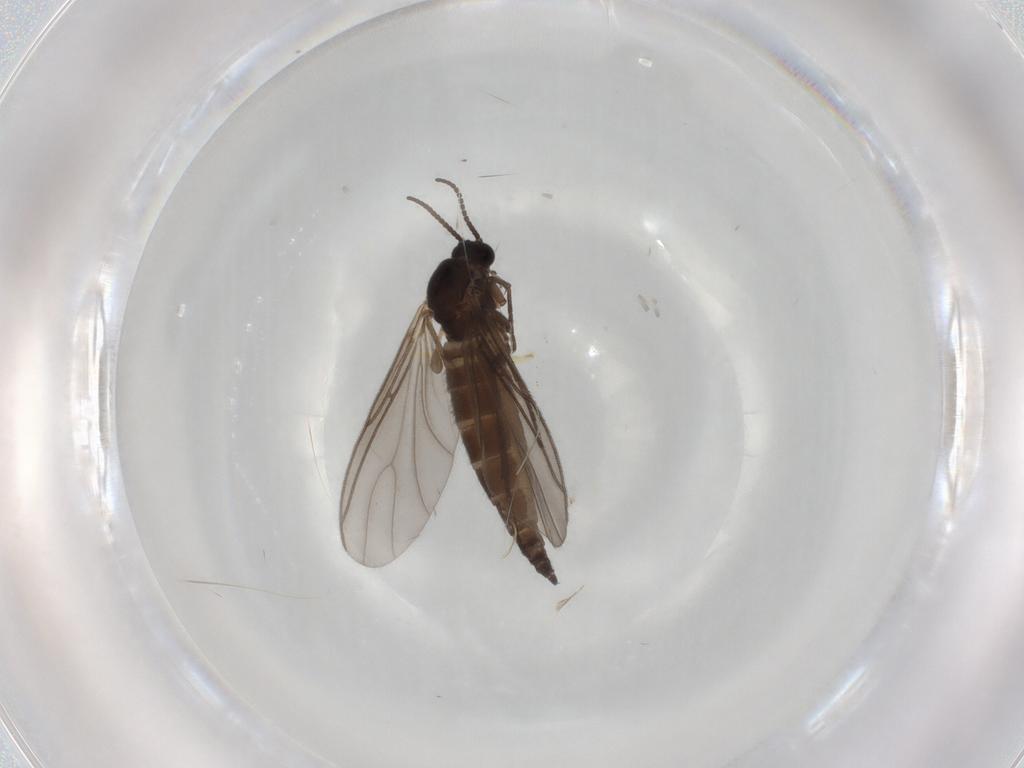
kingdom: Animalia
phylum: Arthropoda
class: Insecta
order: Diptera
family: Sciaridae
